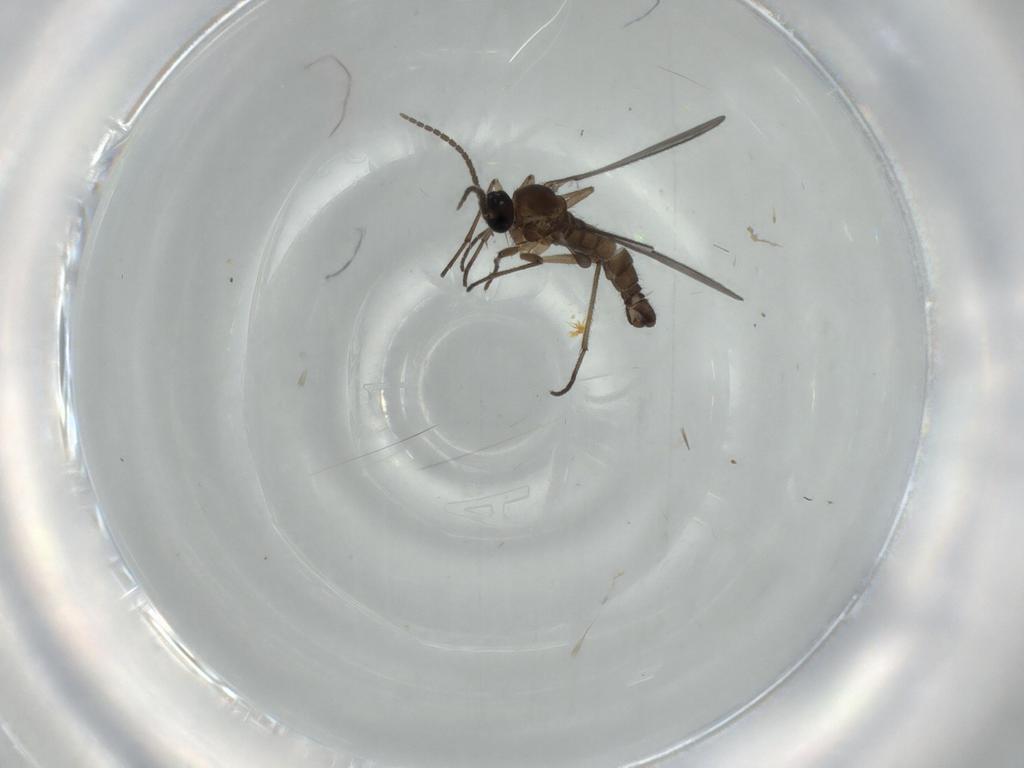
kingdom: Animalia
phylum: Arthropoda
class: Insecta
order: Diptera
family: Sciaridae
